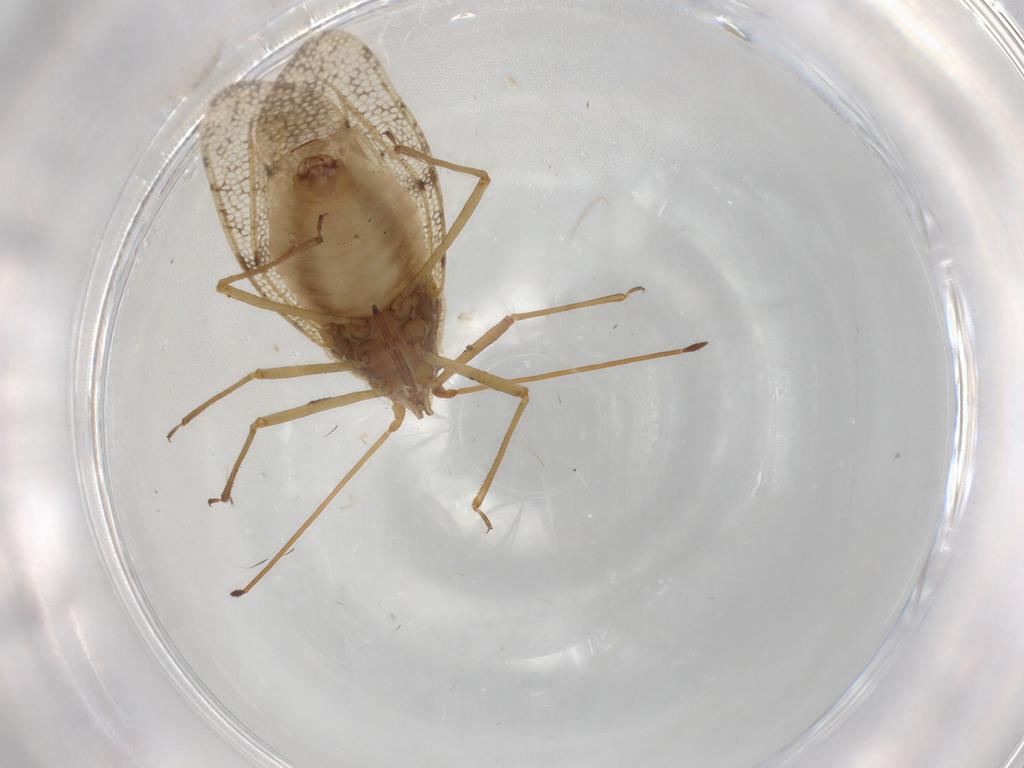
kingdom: Animalia
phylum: Arthropoda
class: Insecta
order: Hemiptera
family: Tingidae
